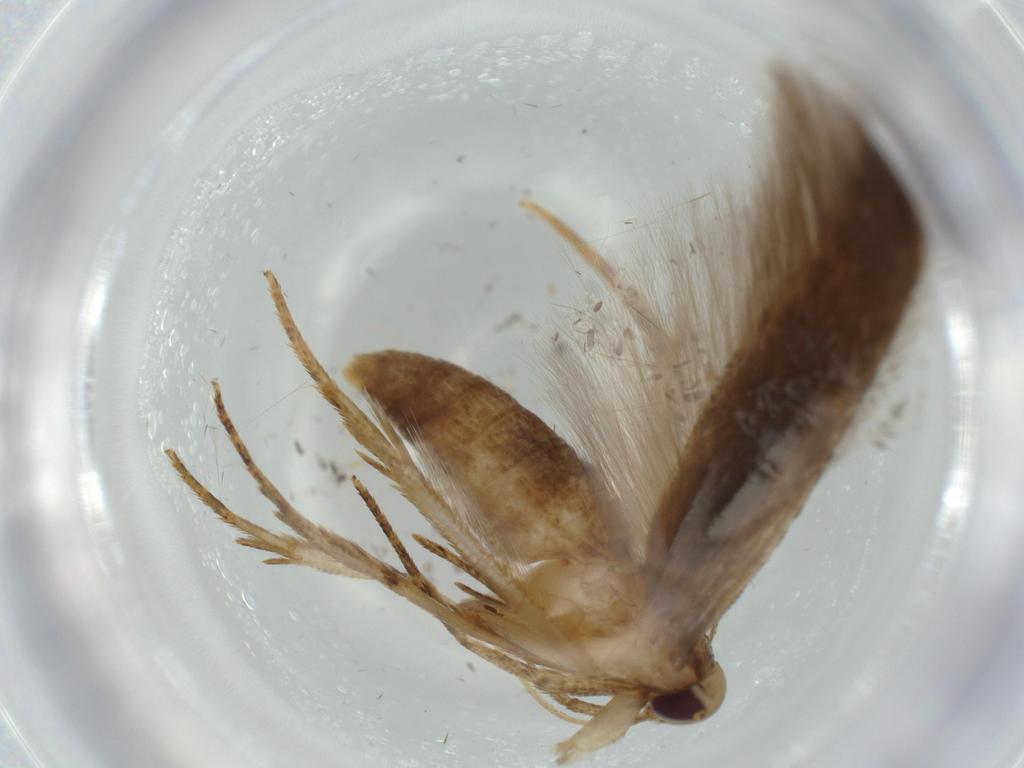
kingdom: Animalia
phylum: Arthropoda
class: Insecta
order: Lepidoptera
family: Cosmopterigidae
